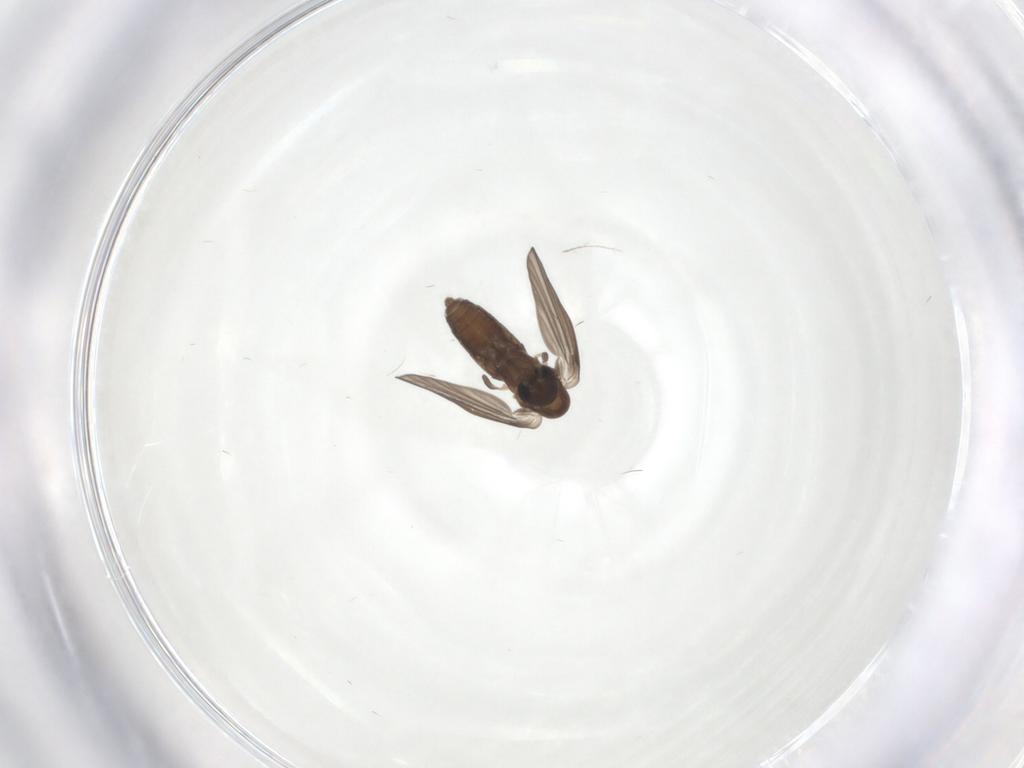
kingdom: Animalia
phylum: Arthropoda
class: Insecta
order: Diptera
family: Limoniidae
